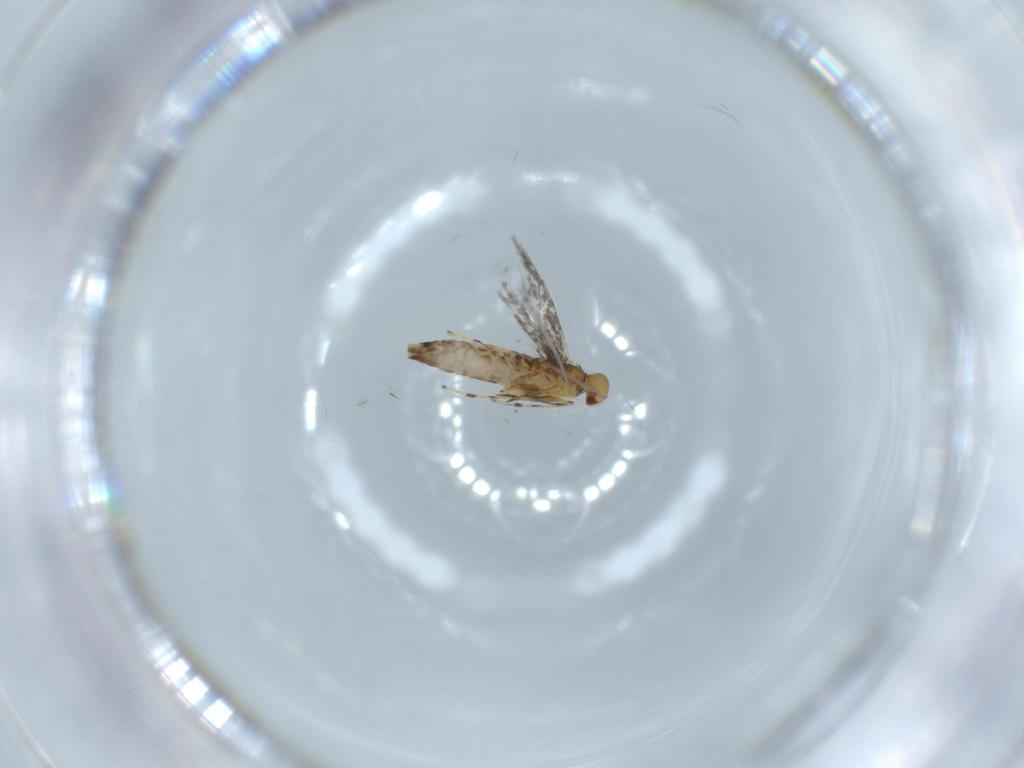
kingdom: Animalia
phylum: Arthropoda
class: Insecta
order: Lepidoptera
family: Gracillariidae
